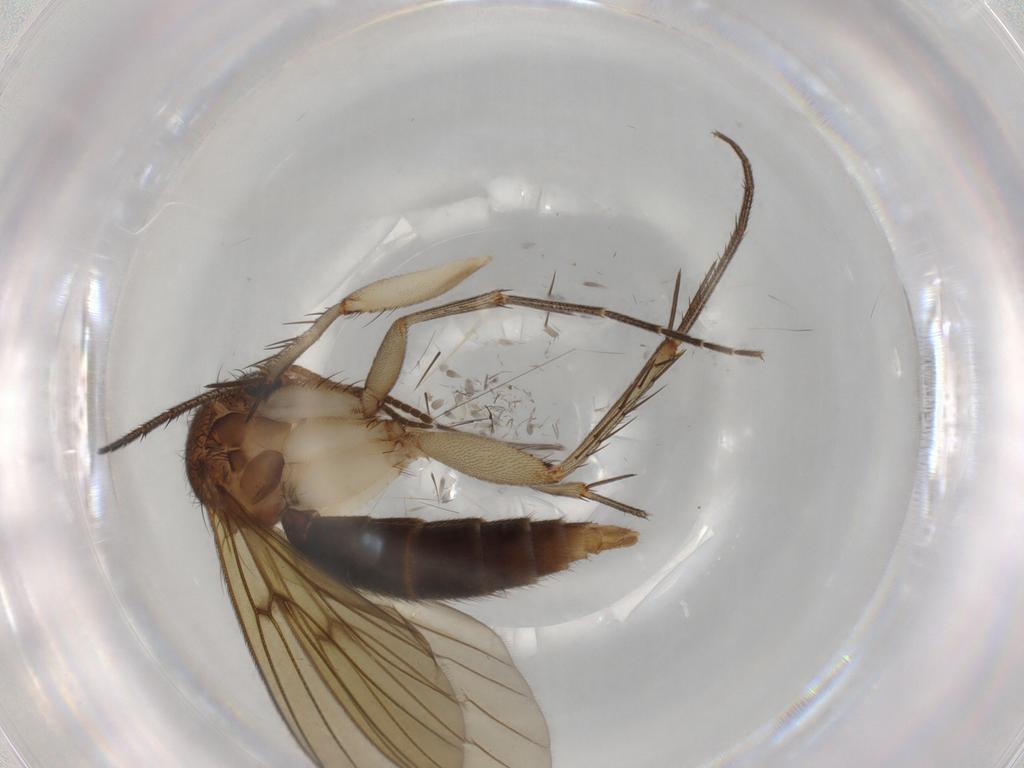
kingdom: Animalia
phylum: Arthropoda
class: Insecta
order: Diptera
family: Mycetophilidae
